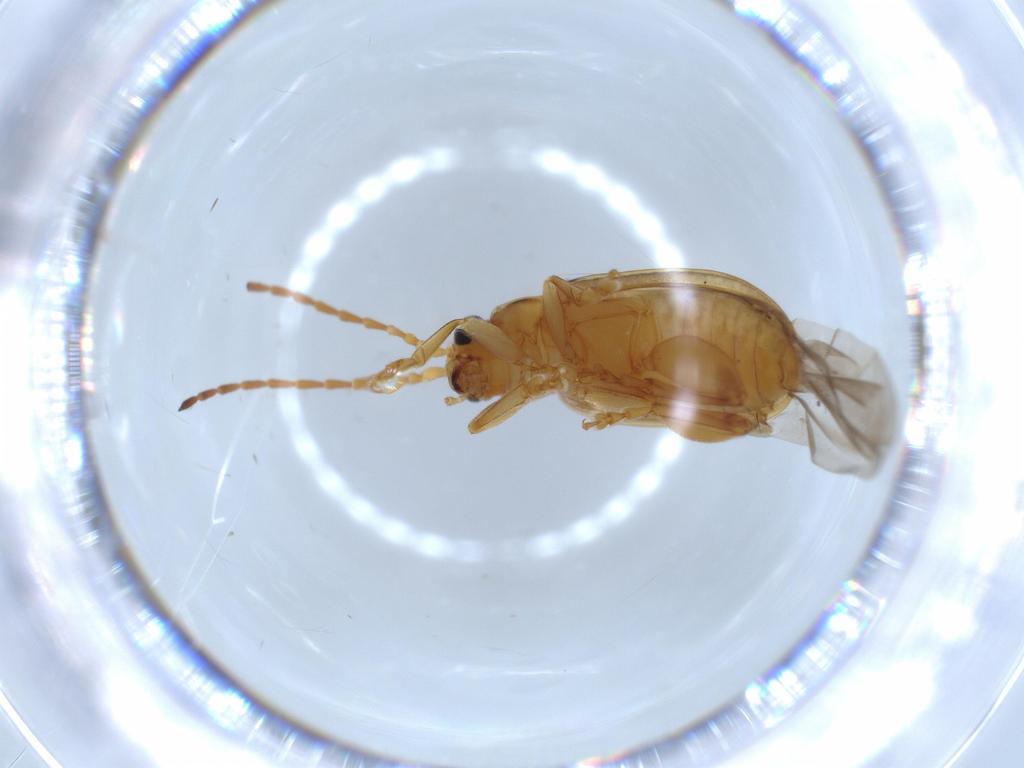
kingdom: Animalia
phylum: Arthropoda
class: Insecta
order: Coleoptera
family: Chrysomelidae
